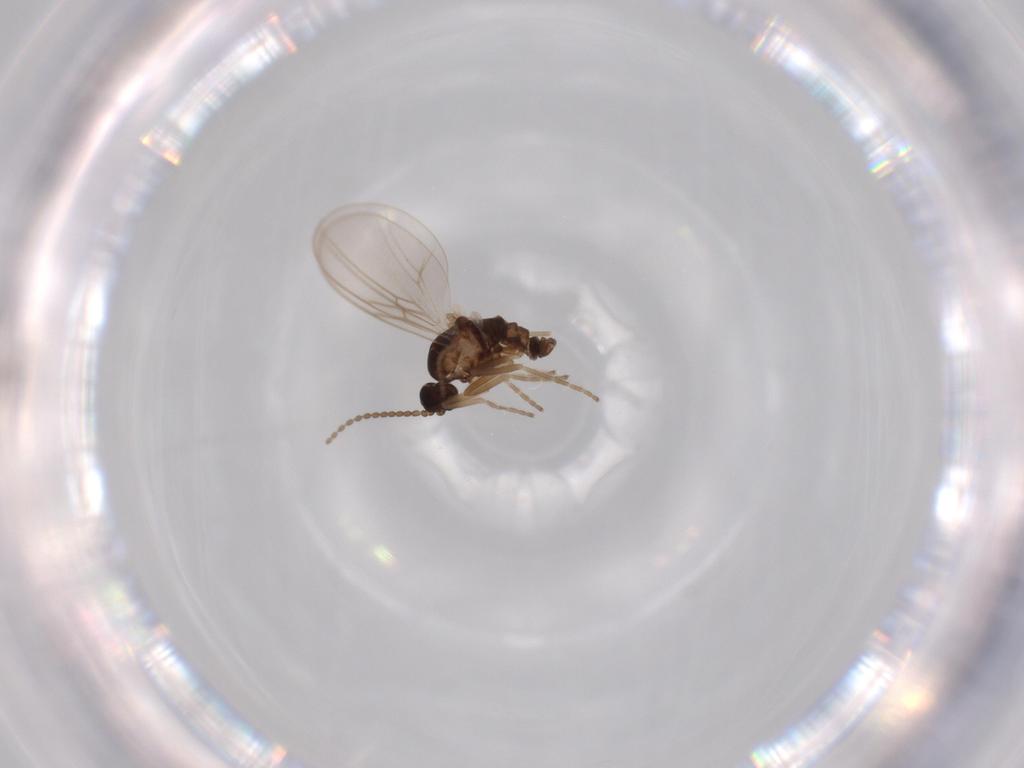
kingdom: Animalia
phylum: Arthropoda
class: Insecta
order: Diptera
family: Cecidomyiidae
